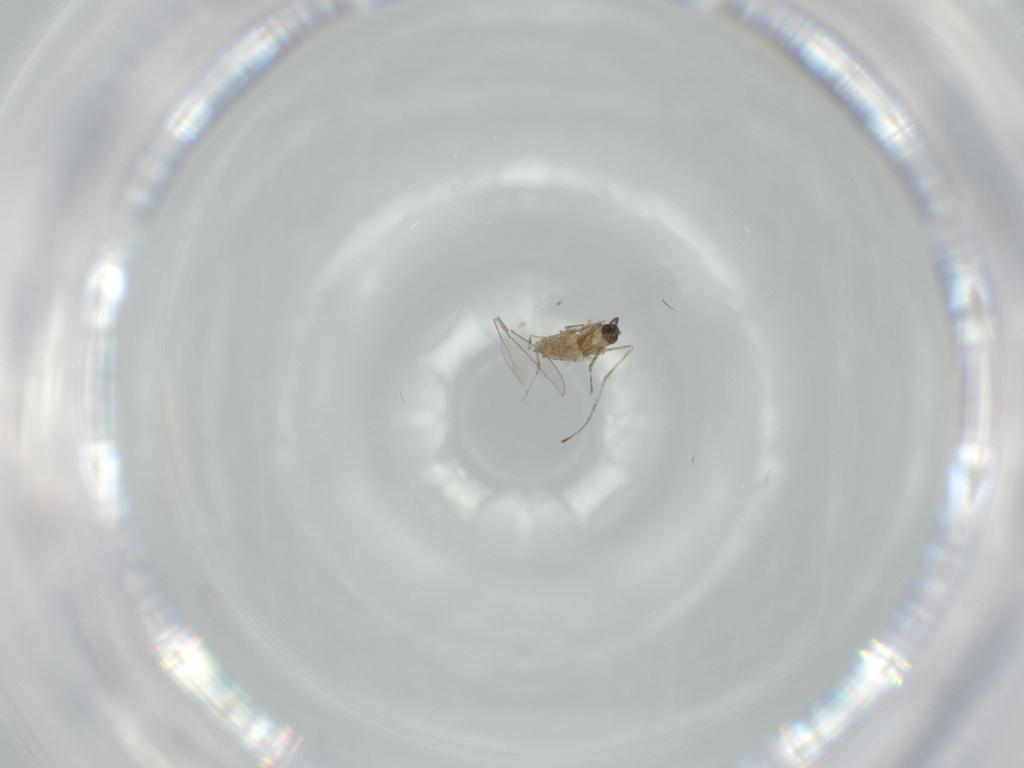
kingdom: Animalia
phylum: Arthropoda
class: Insecta
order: Diptera
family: Cecidomyiidae
